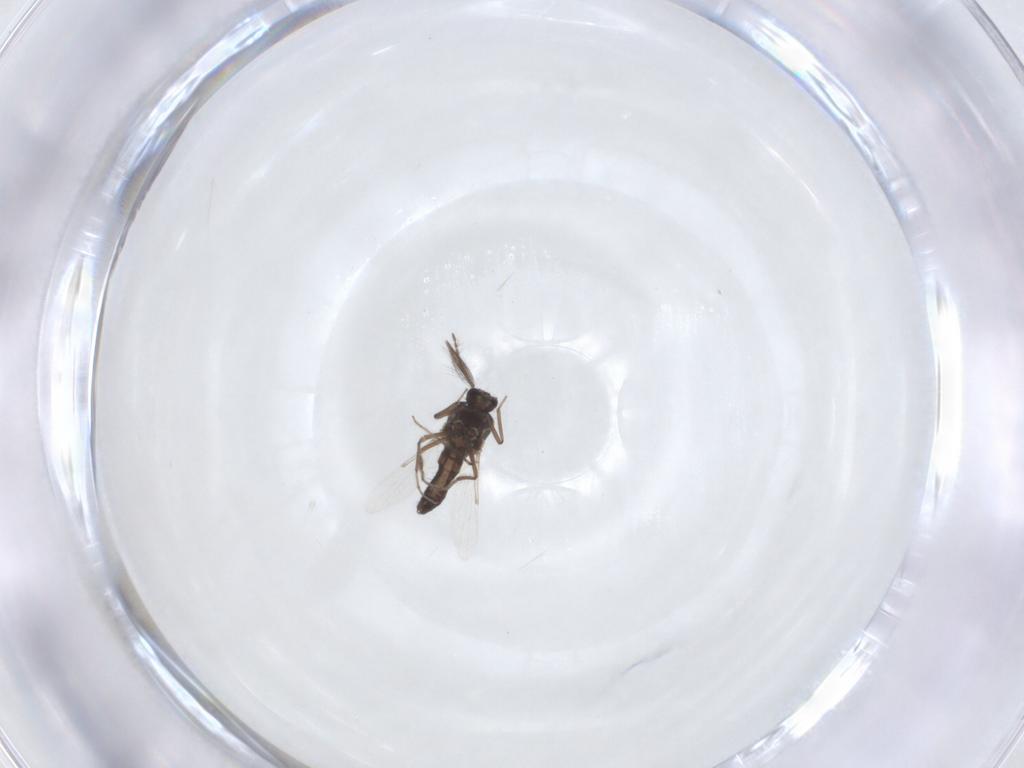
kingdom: Animalia
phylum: Arthropoda
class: Insecta
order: Diptera
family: Ceratopogonidae
